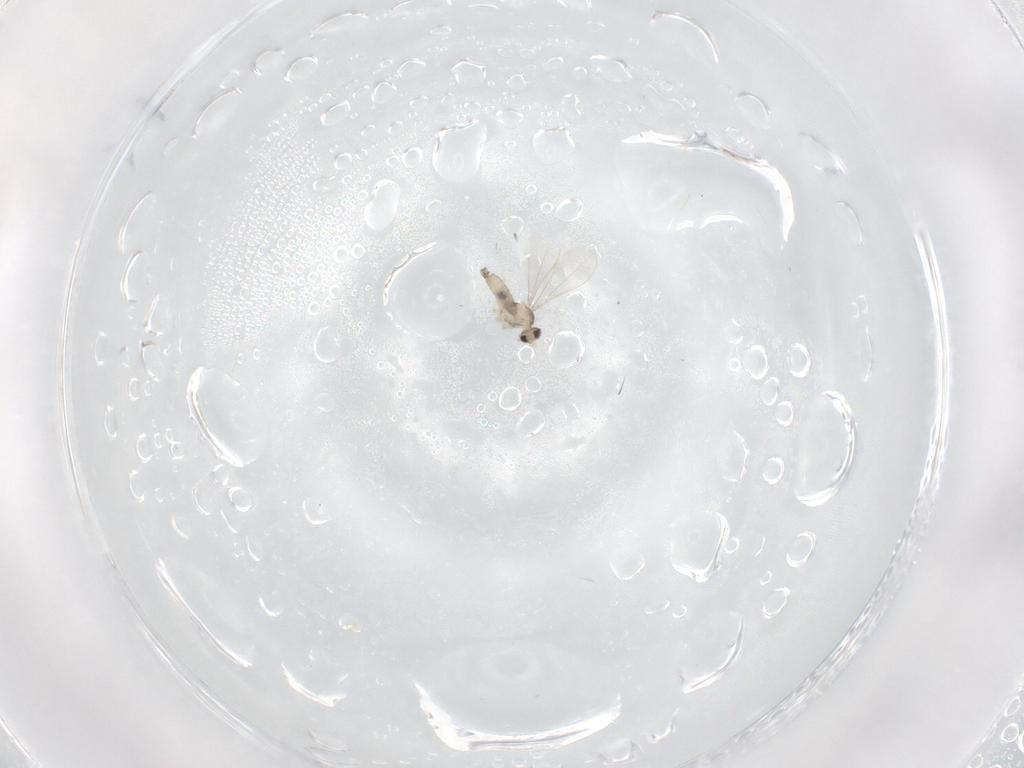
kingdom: Animalia
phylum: Arthropoda
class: Insecta
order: Diptera
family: Cecidomyiidae
